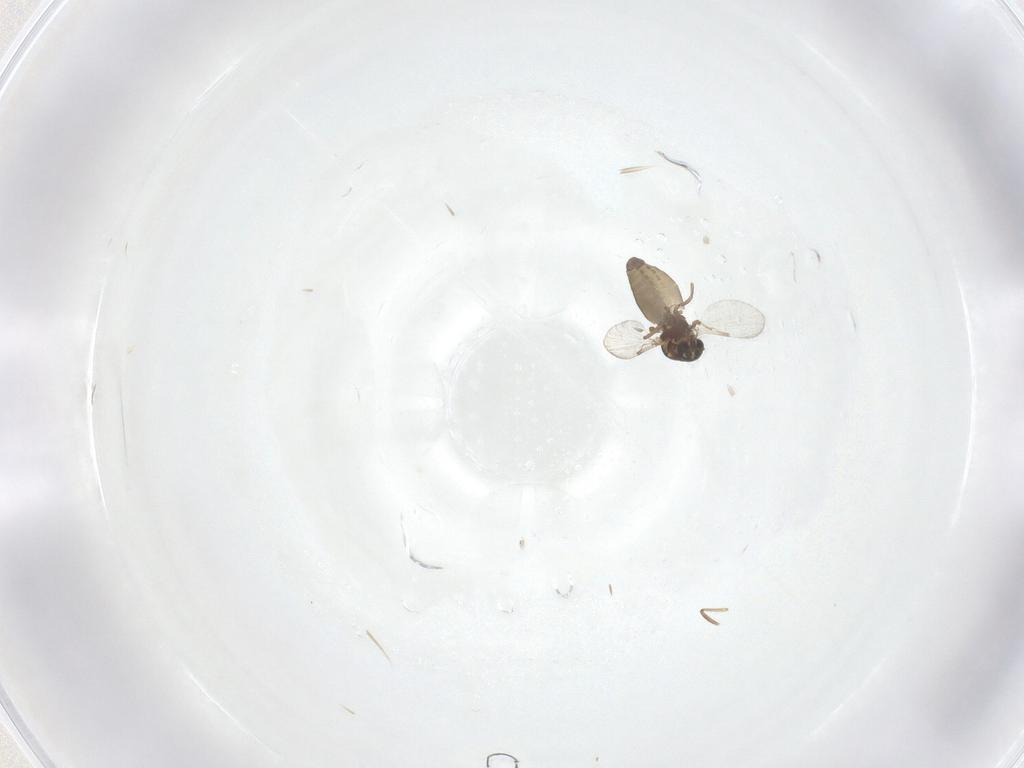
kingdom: Animalia
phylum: Arthropoda
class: Insecta
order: Diptera
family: Ceratopogonidae
